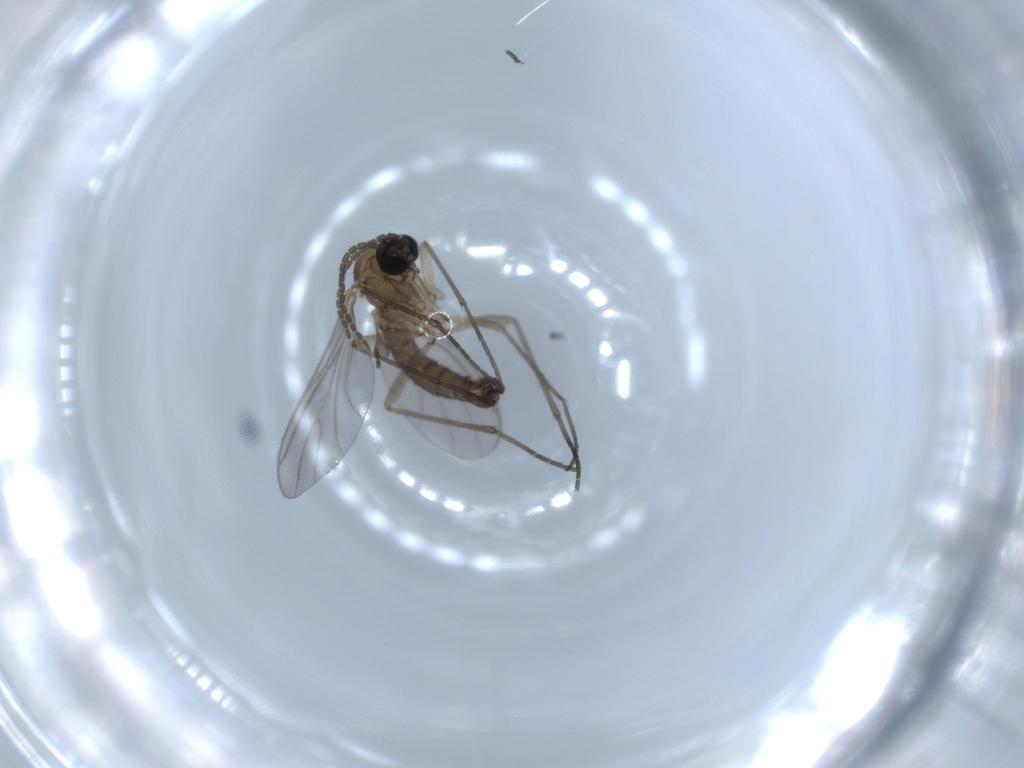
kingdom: Animalia
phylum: Arthropoda
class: Insecta
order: Diptera
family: Sciaridae
